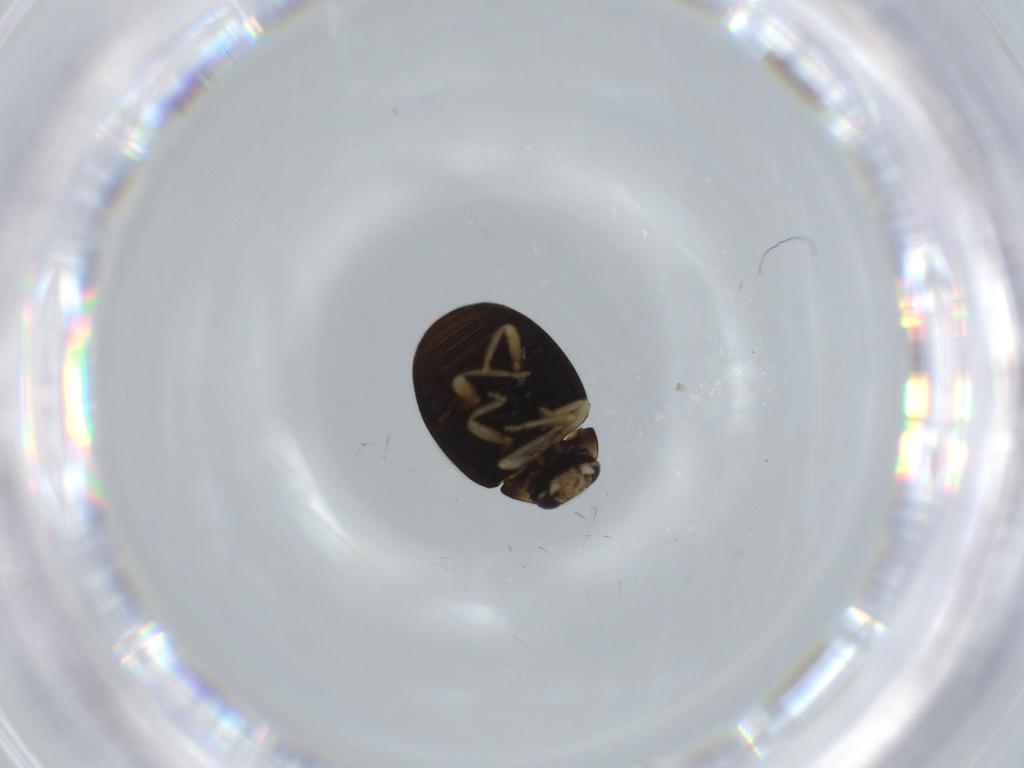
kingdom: Animalia
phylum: Arthropoda
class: Insecta
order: Coleoptera
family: Coccinellidae
